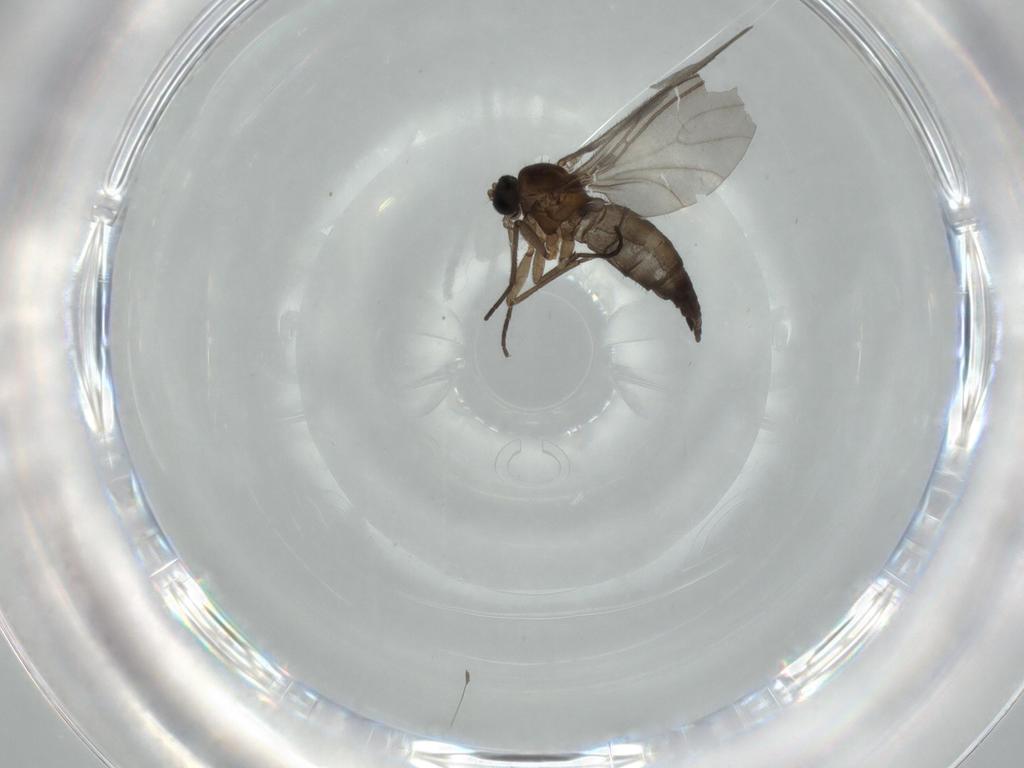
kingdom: Animalia
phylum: Arthropoda
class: Insecta
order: Diptera
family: Sciaridae
